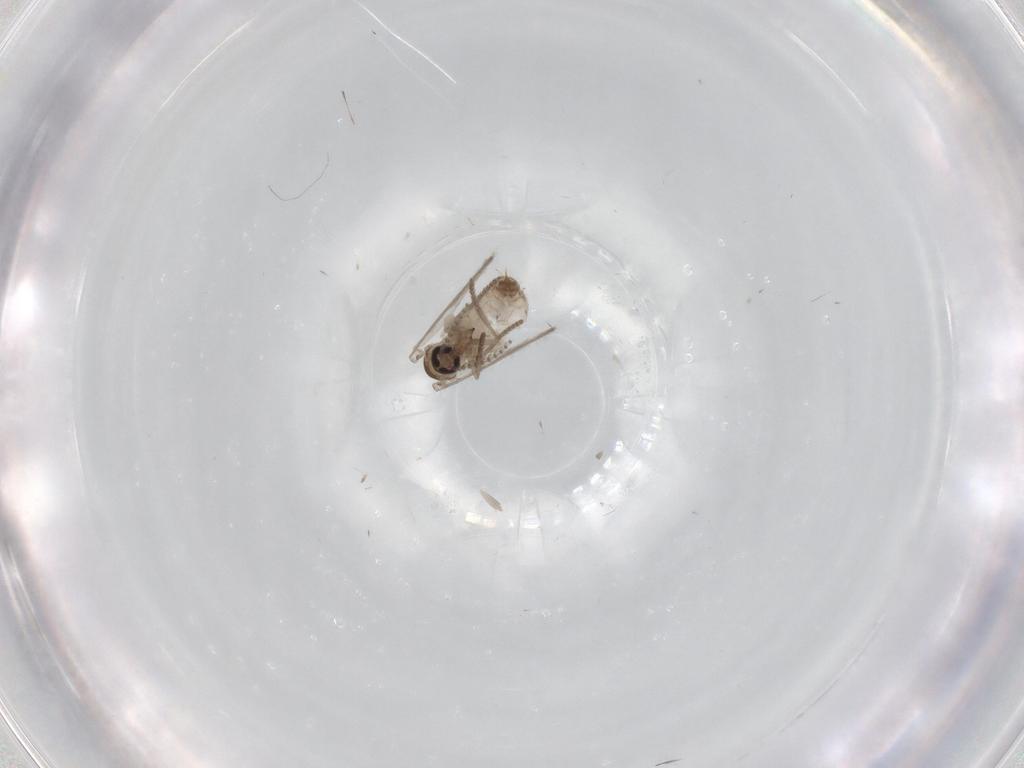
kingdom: Animalia
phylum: Arthropoda
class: Insecta
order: Diptera
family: Psychodidae
